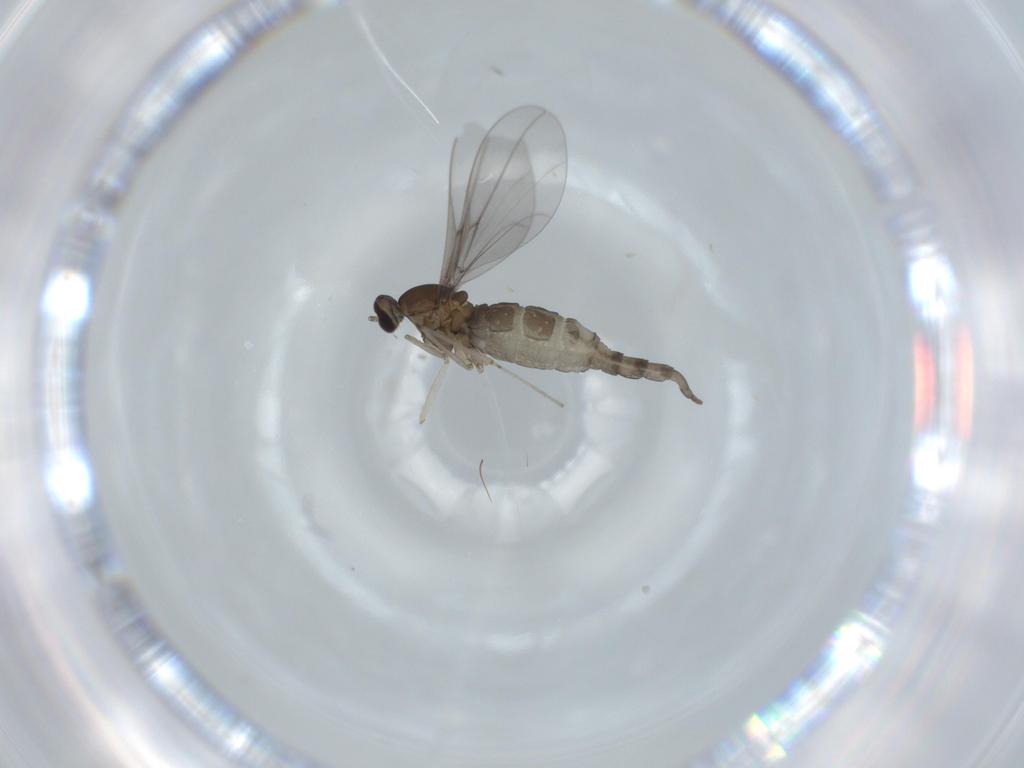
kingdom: Animalia
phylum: Arthropoda
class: Insecta
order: Diptera
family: Cecidomyiidae
